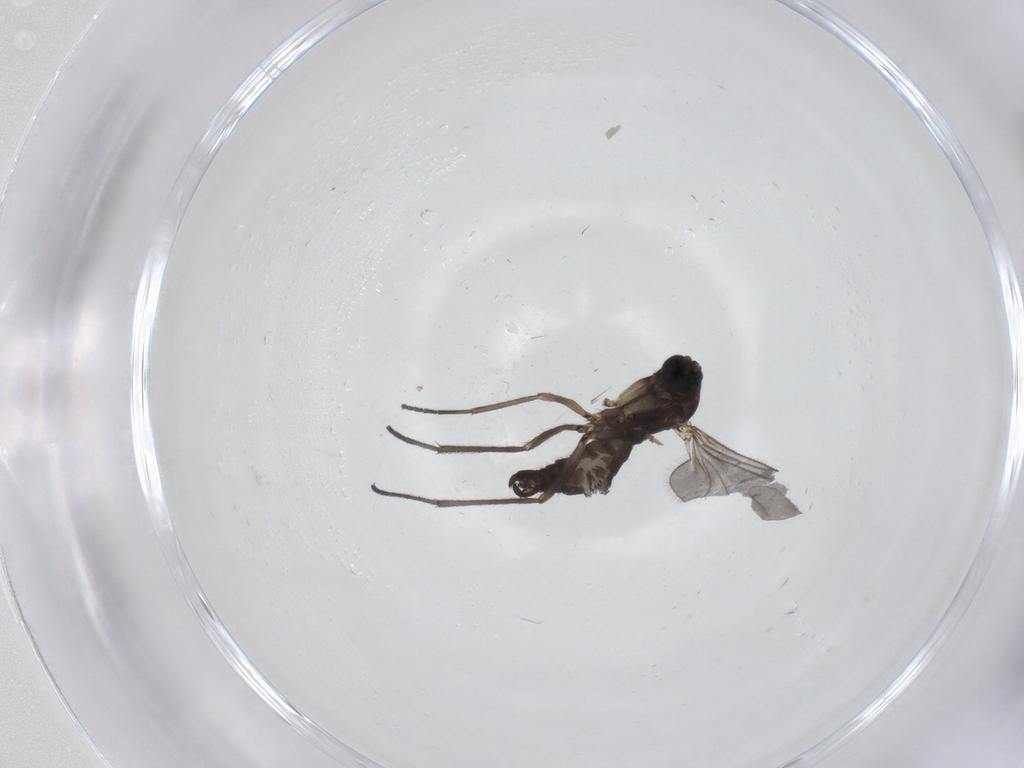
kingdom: Animalia
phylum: Arthropoda
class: Insecta
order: Diptera
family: Sciaridae
